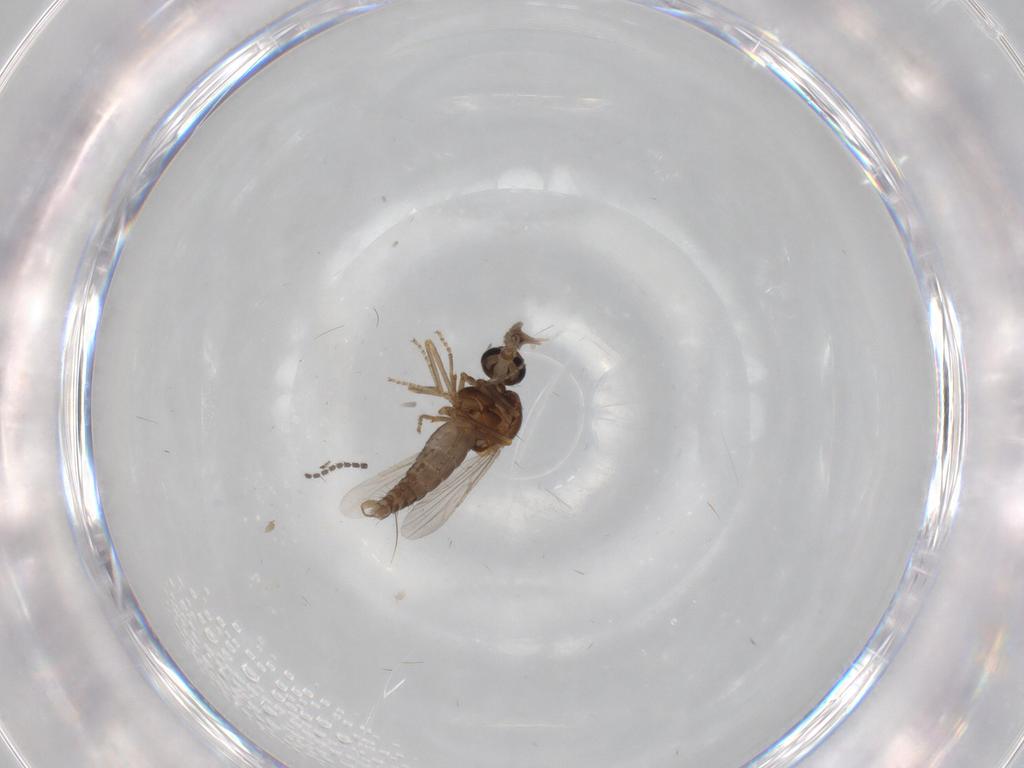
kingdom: Animalia
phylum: Arthropoda
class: Insecta
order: Diptera
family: Ceratopogonidae
